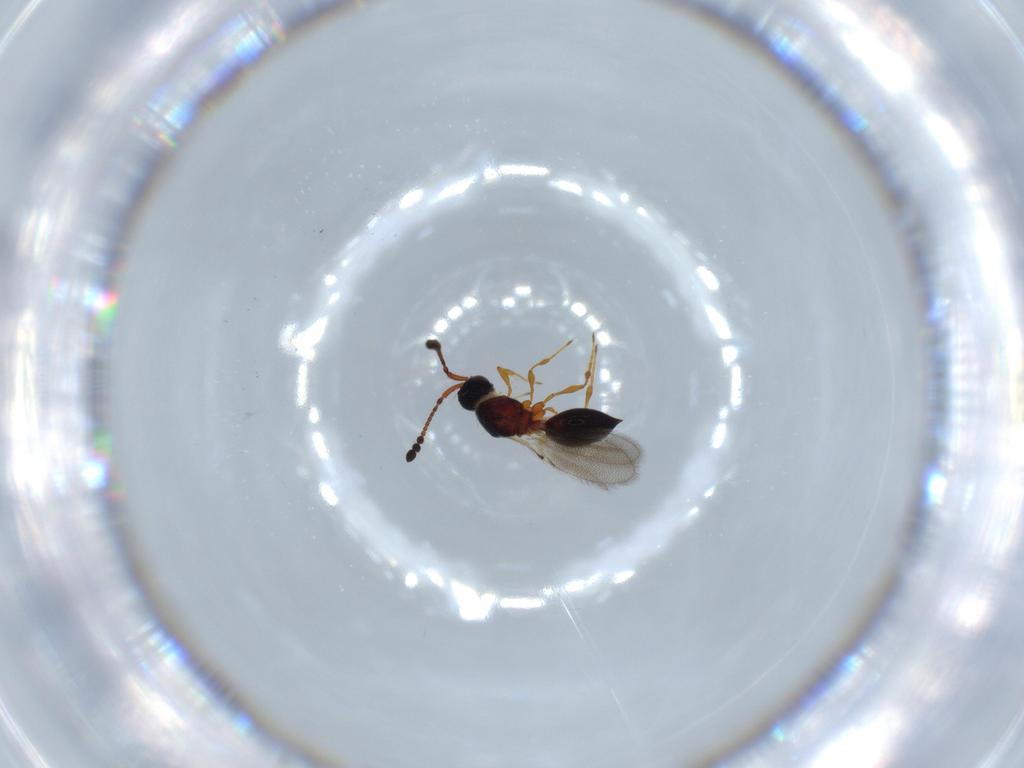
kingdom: Animalia
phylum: Arthropoda
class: Insecta
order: Hymenoptera
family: Diapriidae
